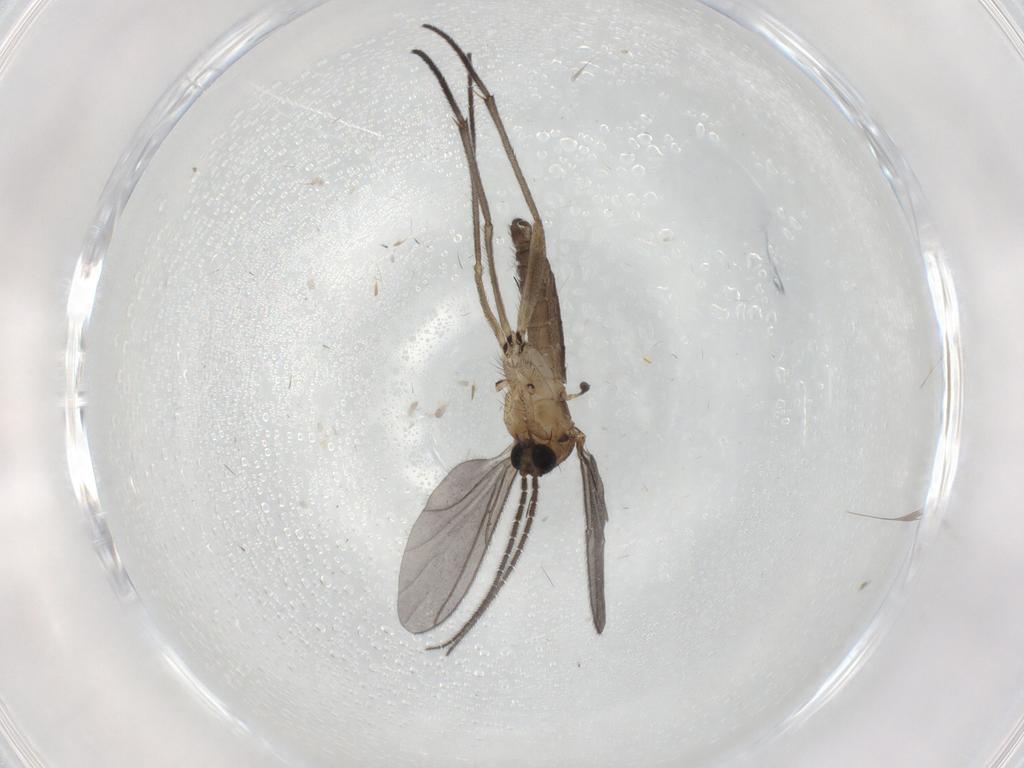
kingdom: Animalia
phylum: Arthropoda
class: Insecta
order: Diptera
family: Sciaridae
